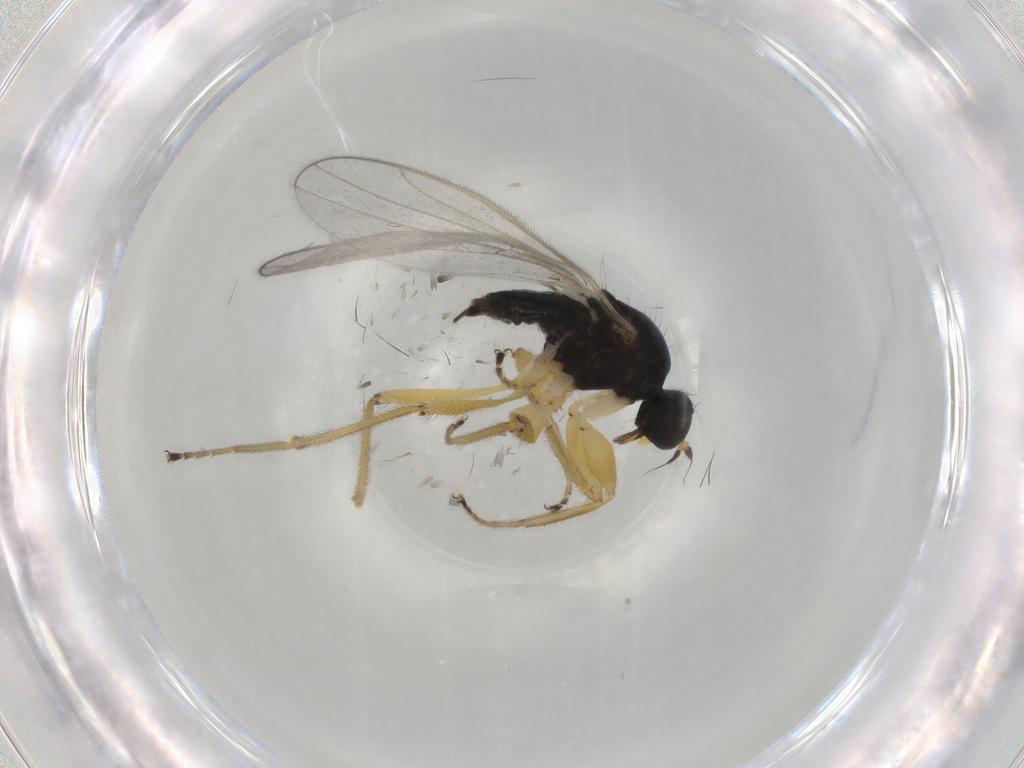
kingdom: Animalia
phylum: Arthropoda
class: Insecta
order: Diptera
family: Hybotidae
